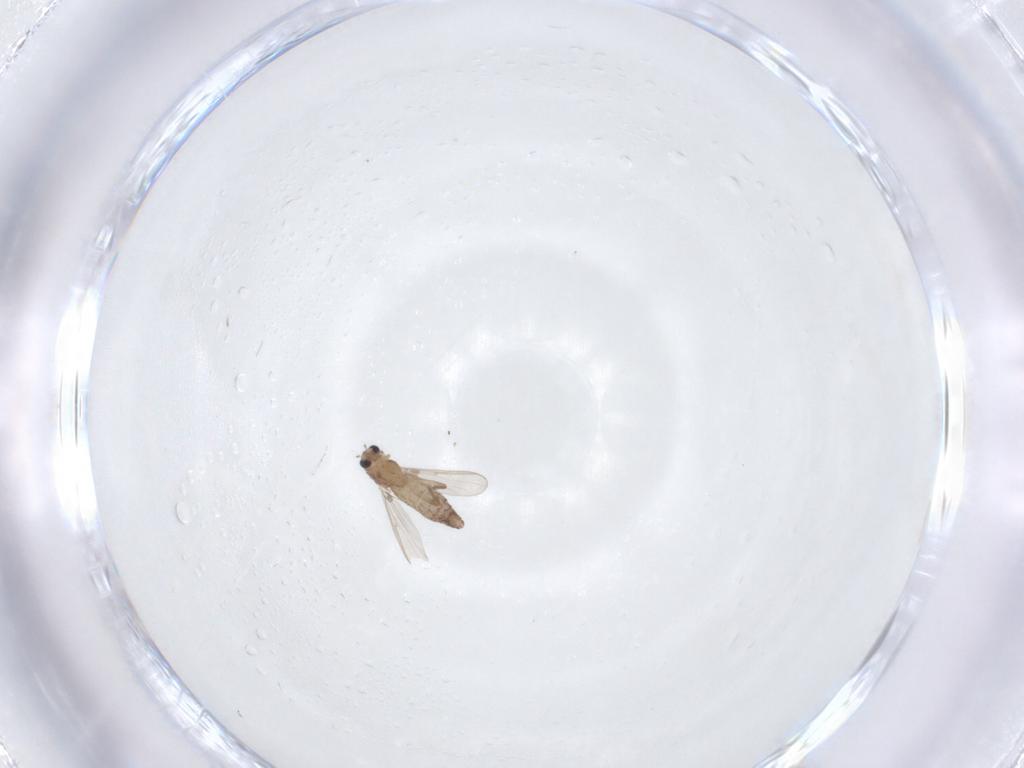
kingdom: Animalia
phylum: Arthropoda
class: Insecta
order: Diptera
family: Chironomidae
